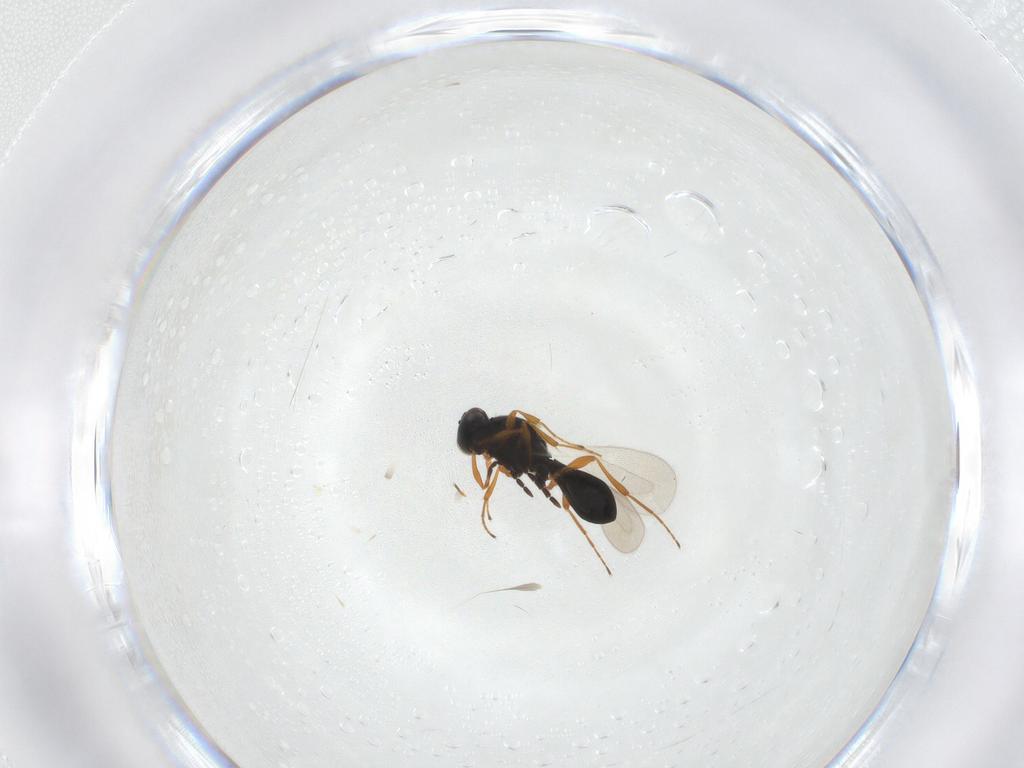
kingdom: Animalia
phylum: Arthropoda
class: Insecta
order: Hymenoptera
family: Platygastridae
